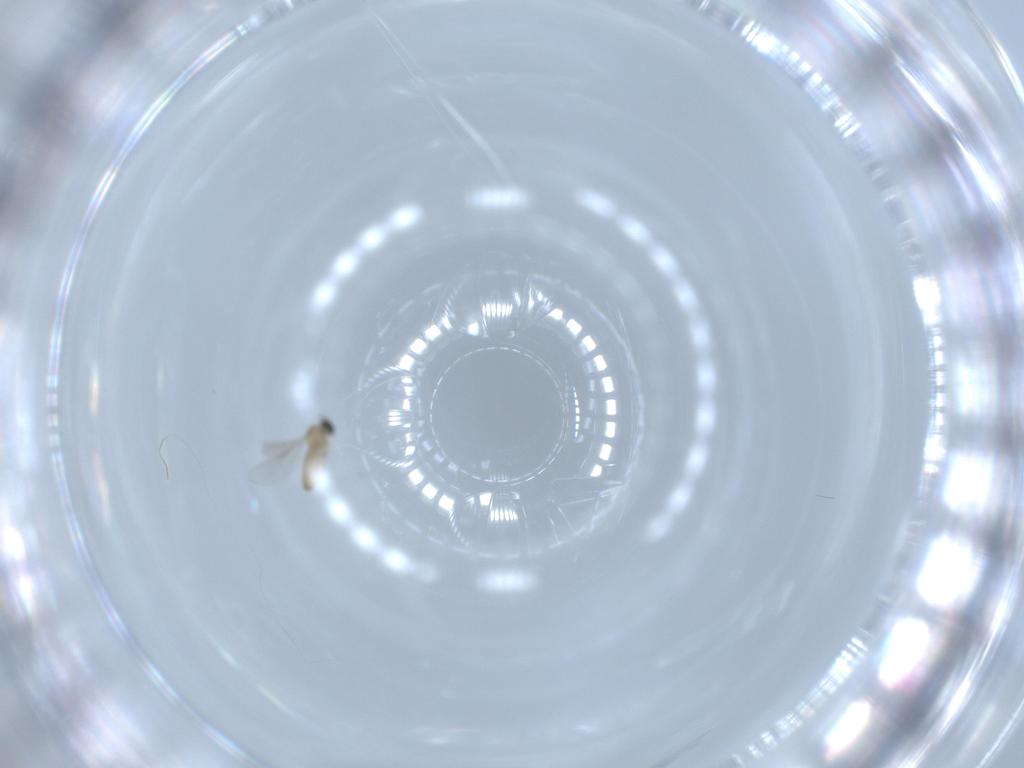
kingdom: Animalia
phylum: Arthropoda
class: Insecta
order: Diptera
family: Cecidomyiidae
